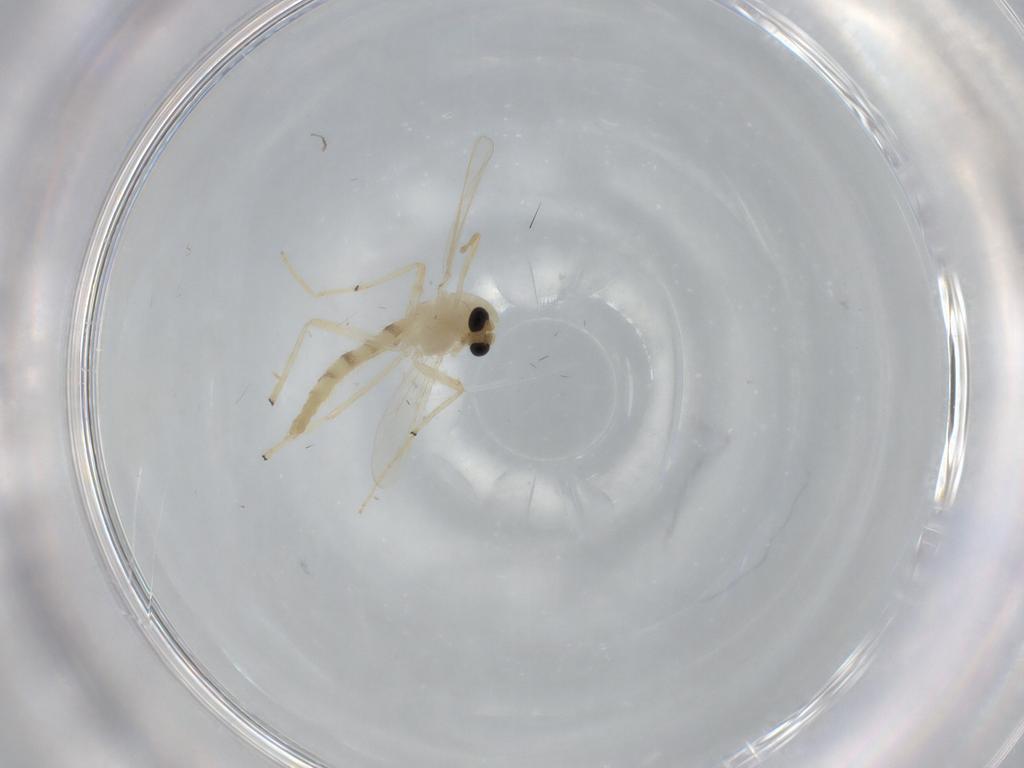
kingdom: Animalia
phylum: Arthropoda
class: Insecta
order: Diptera
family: Chironomidae
